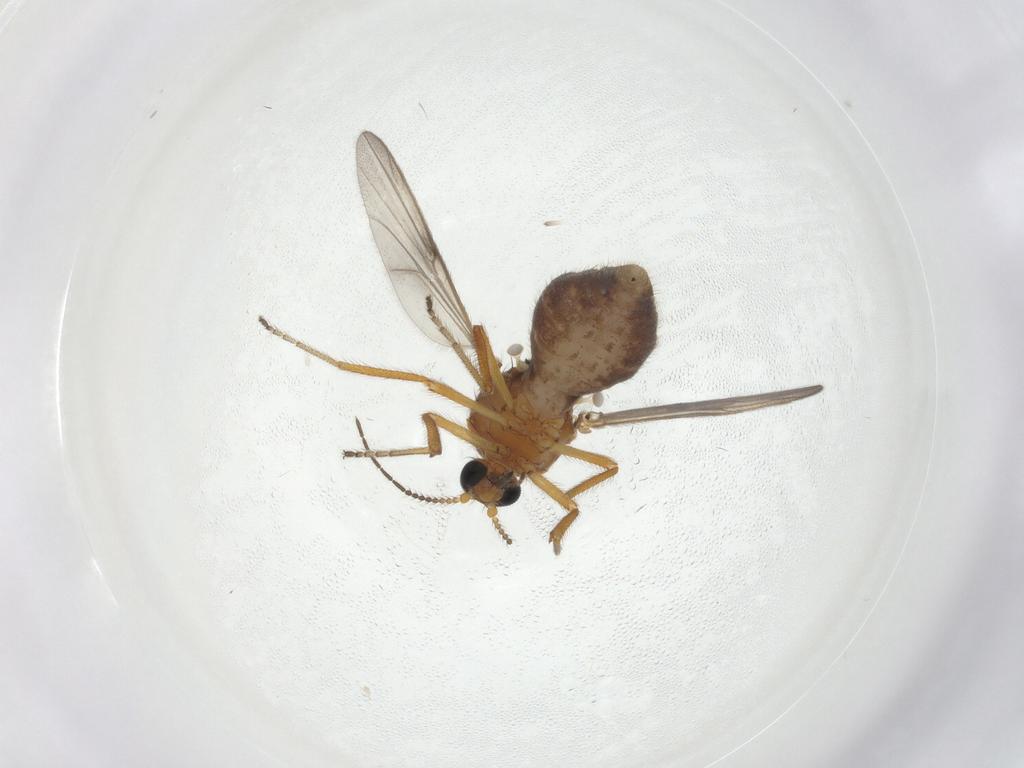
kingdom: Animalia
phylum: Arthropoda
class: Insecta
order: Diptera
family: Ceratopogonidae
